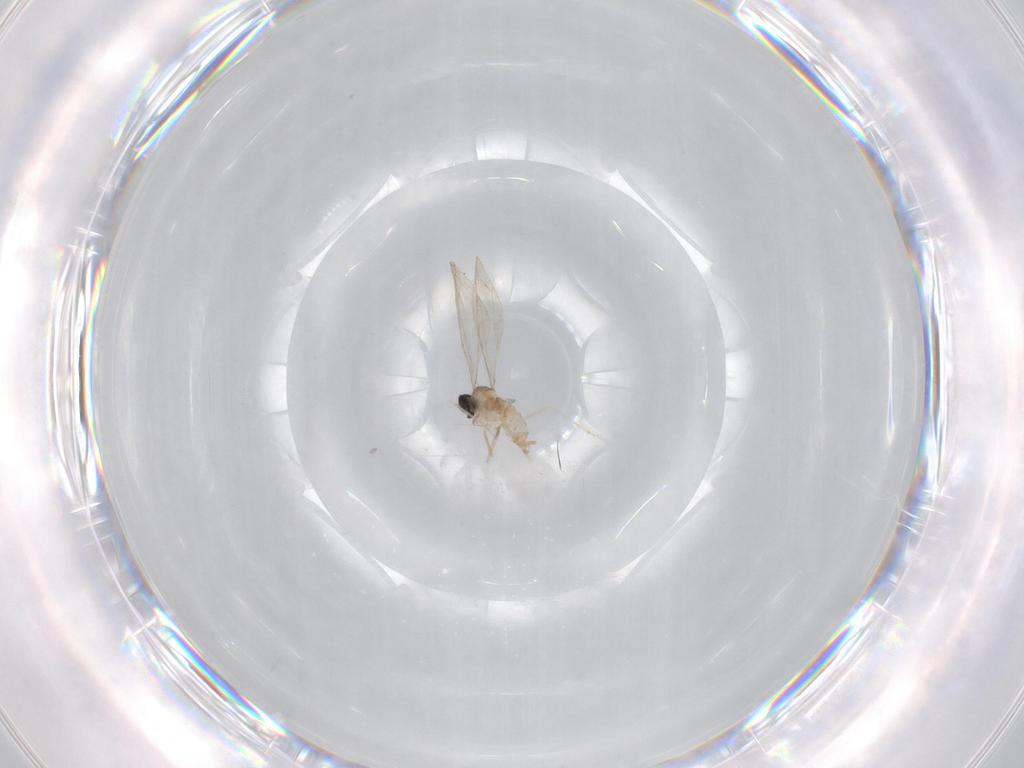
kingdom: Animalia
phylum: Arthropoda
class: Insecta
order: Diptera
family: Cecidomyiidae
